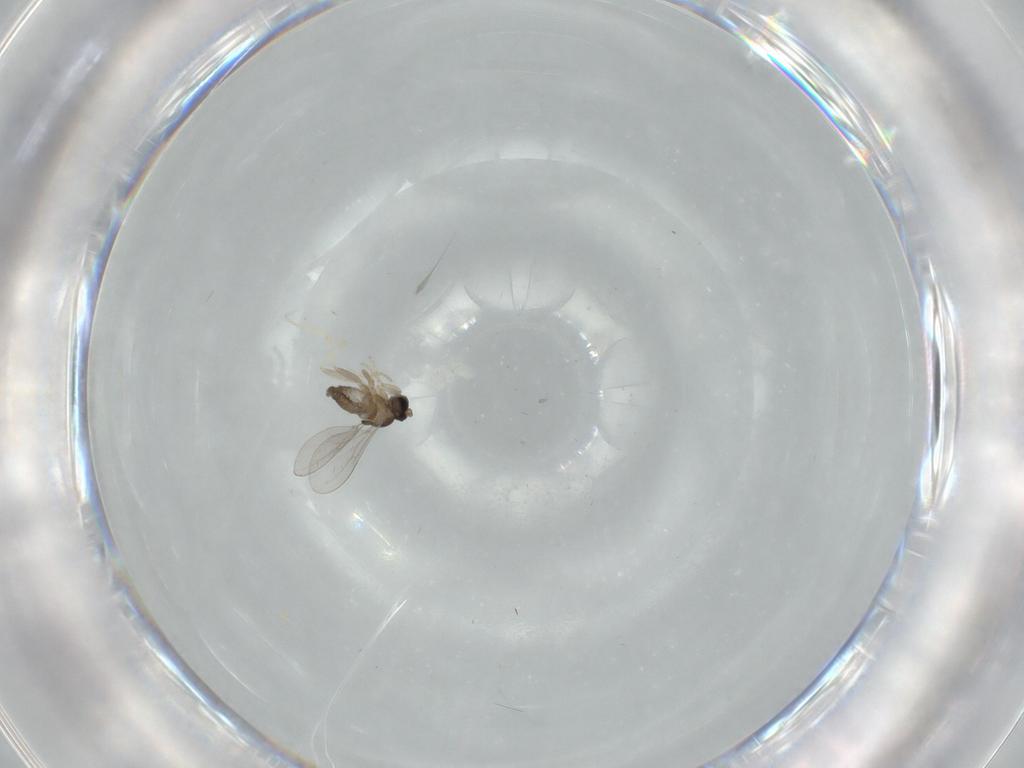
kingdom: Animalia
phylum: Arthropoda
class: Insecta
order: Diptera
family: Cecidomyiidae
